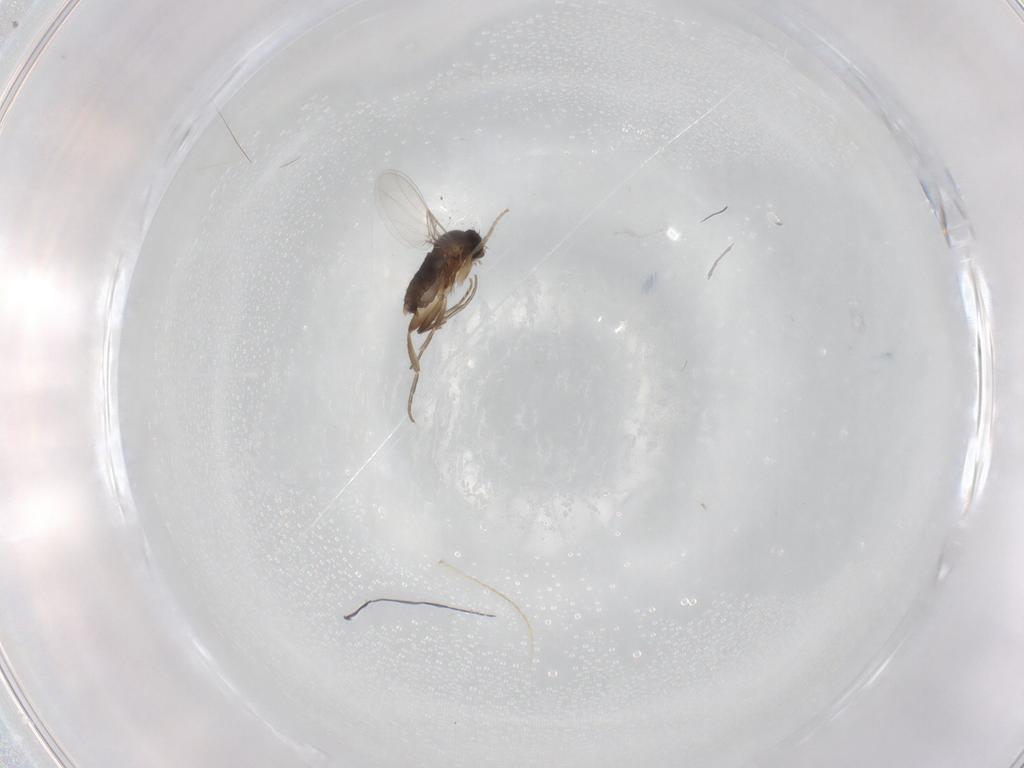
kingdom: Animalia
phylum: Arthropoda
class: Insecta
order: Diptera
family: Phoridae
